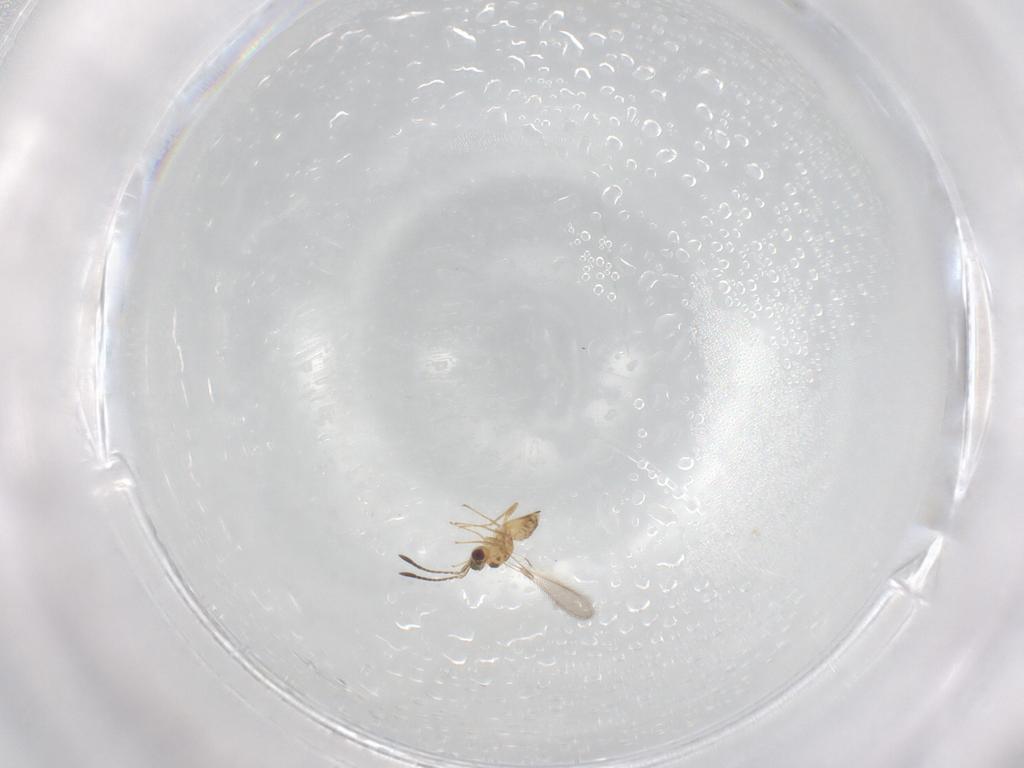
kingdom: Animalia
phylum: Arthropoda
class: Insecta
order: Hymenoptera
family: Mymaridae
